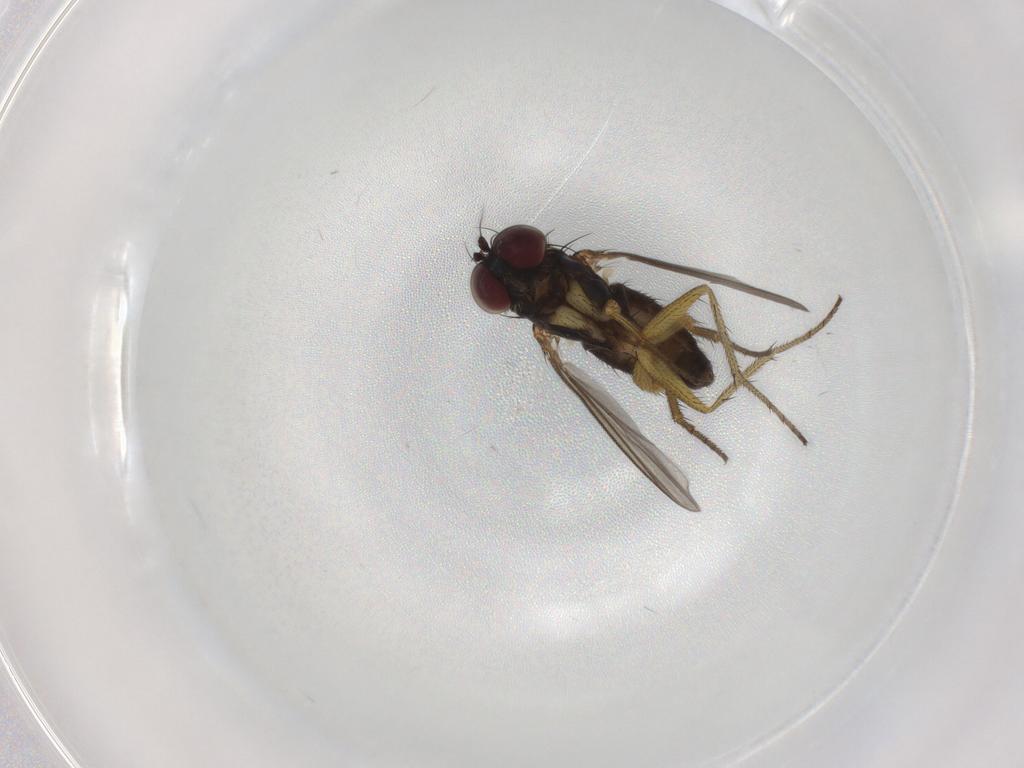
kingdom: Animalia
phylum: Arthropoda
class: Insecta
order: Diptera
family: Dolichopodidae
